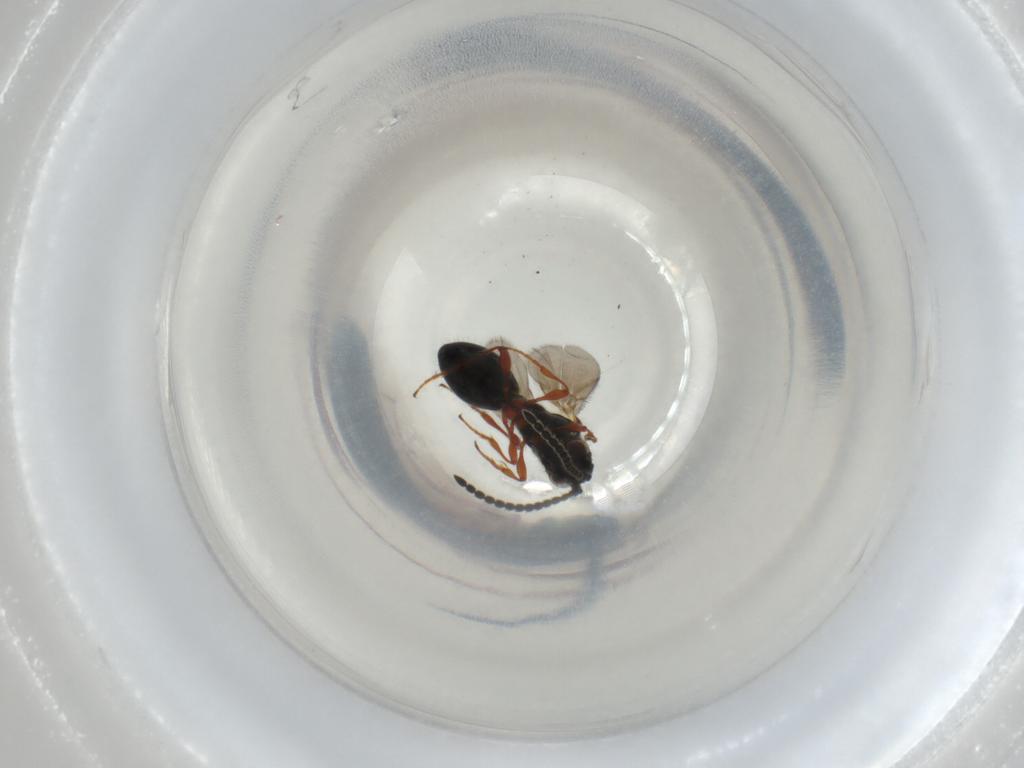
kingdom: Animalia
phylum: Arthropoda
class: Insecta
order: Hymenoptera
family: Diapriidae
